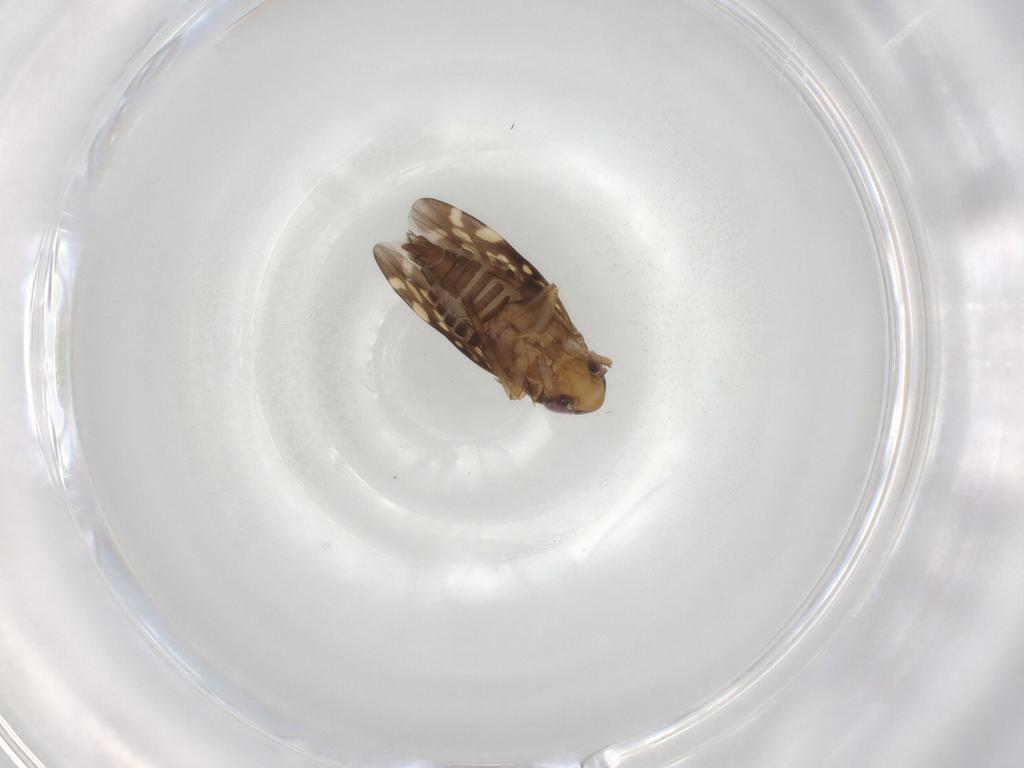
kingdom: Animalia
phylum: Arthropoda
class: Insecta
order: Hemiptera
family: Cicadellidae
